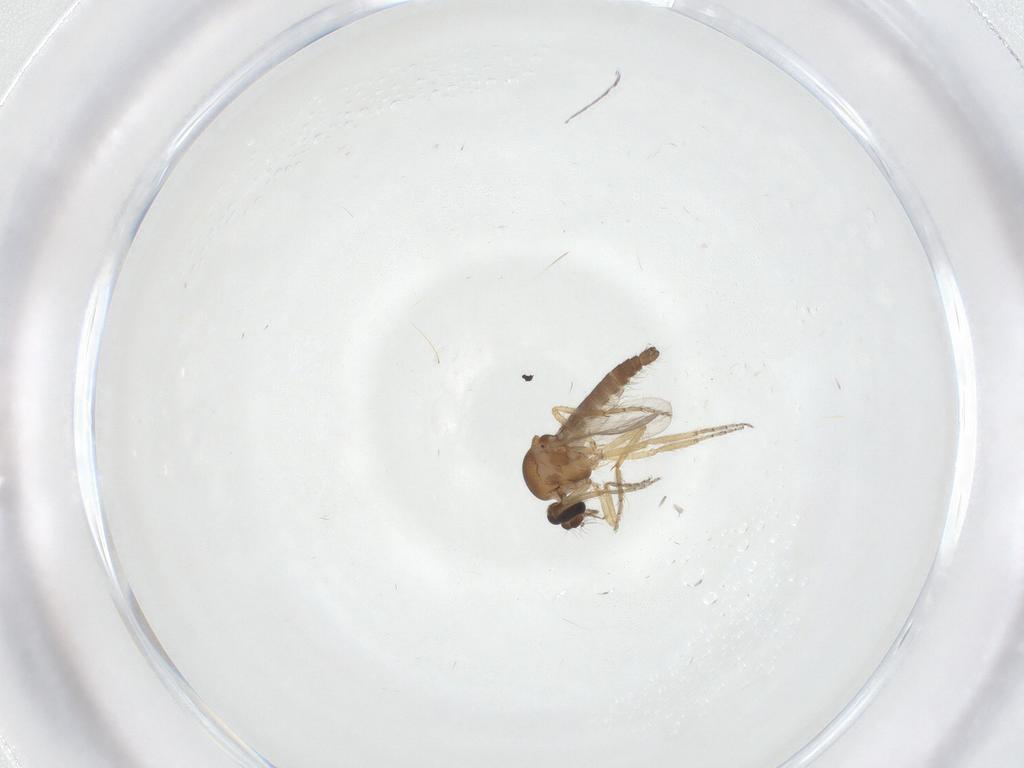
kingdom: Animalia
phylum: Arthropoda
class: Insecta
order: Diptera
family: Ceratopogonidae
